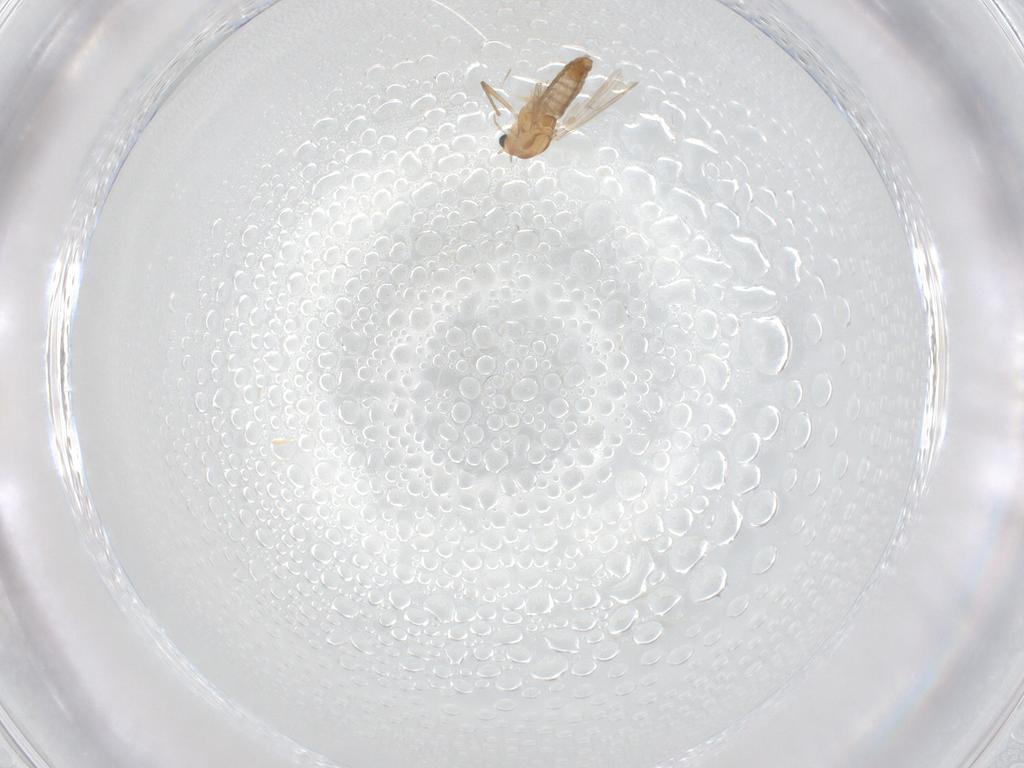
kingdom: Animalia
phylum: Arthropoda
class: Insecta
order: Diptera
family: Chironomidae
